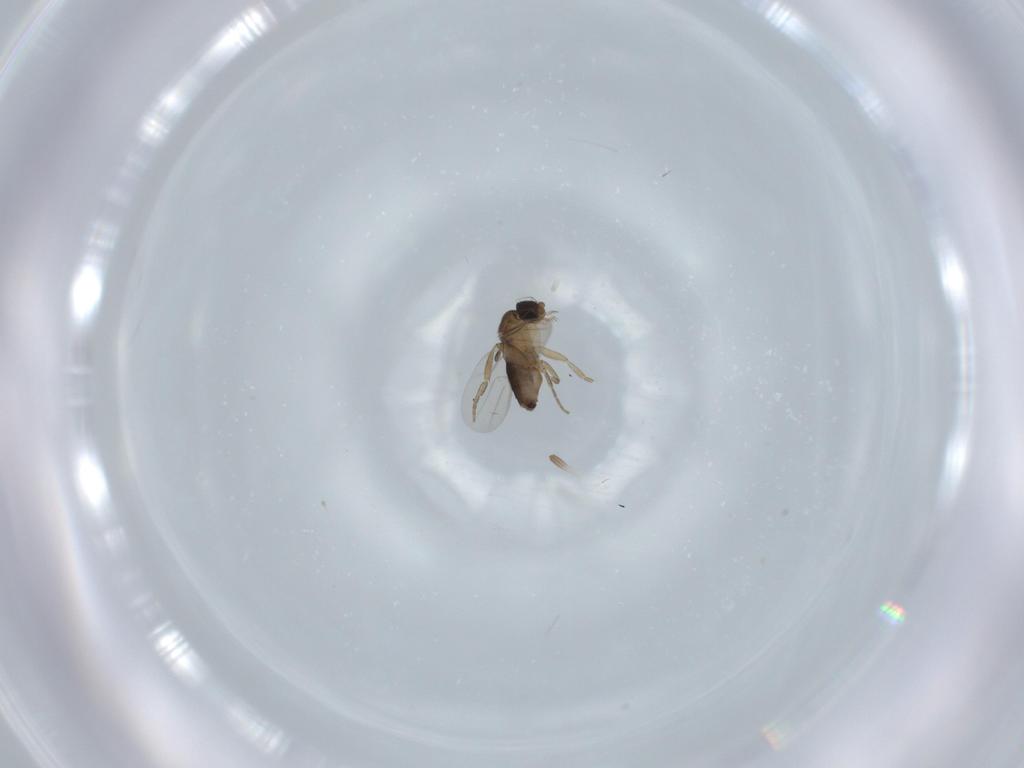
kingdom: Animalia
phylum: Arthropoda
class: Insecta
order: Diptera
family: Phoridae
